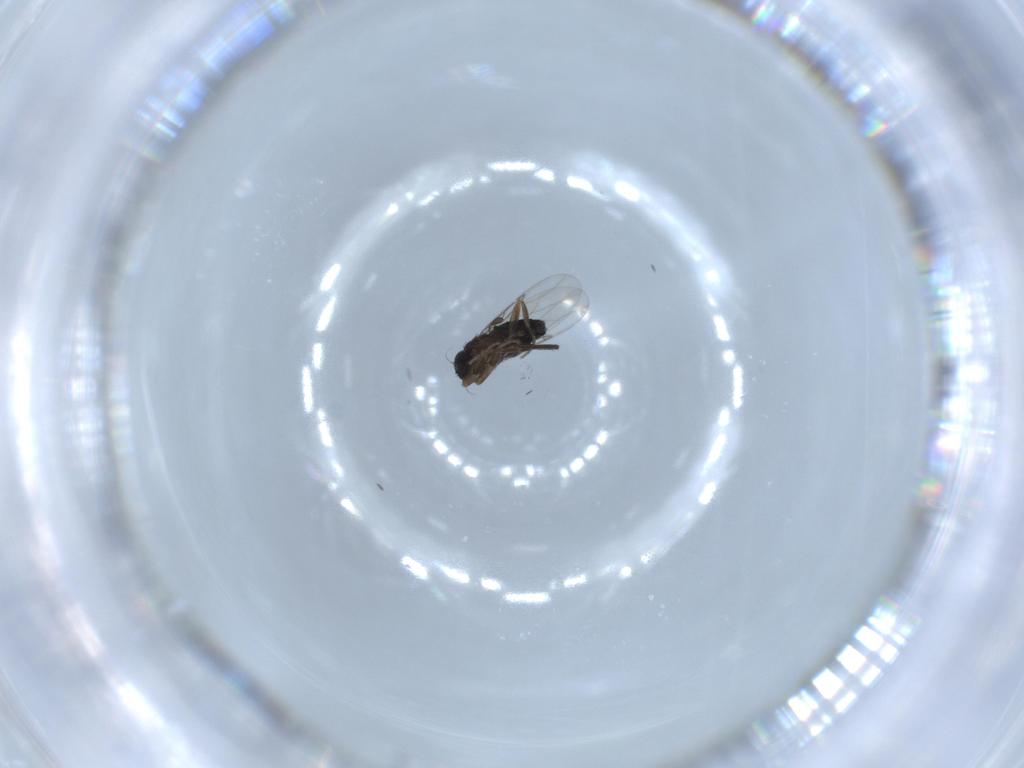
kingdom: Animalia
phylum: Arthropoda
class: Insecta
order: Diptera
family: Phoridae
